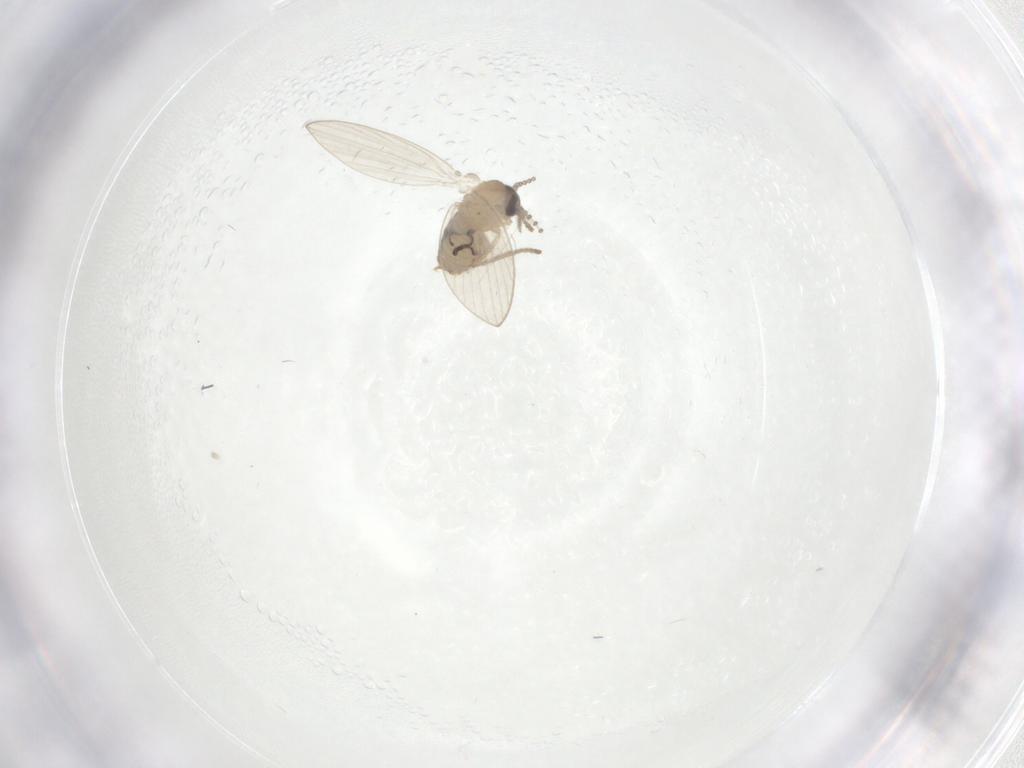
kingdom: Animalia
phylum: Arthropoda
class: Insecta
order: Diptera
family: Psychodidae
